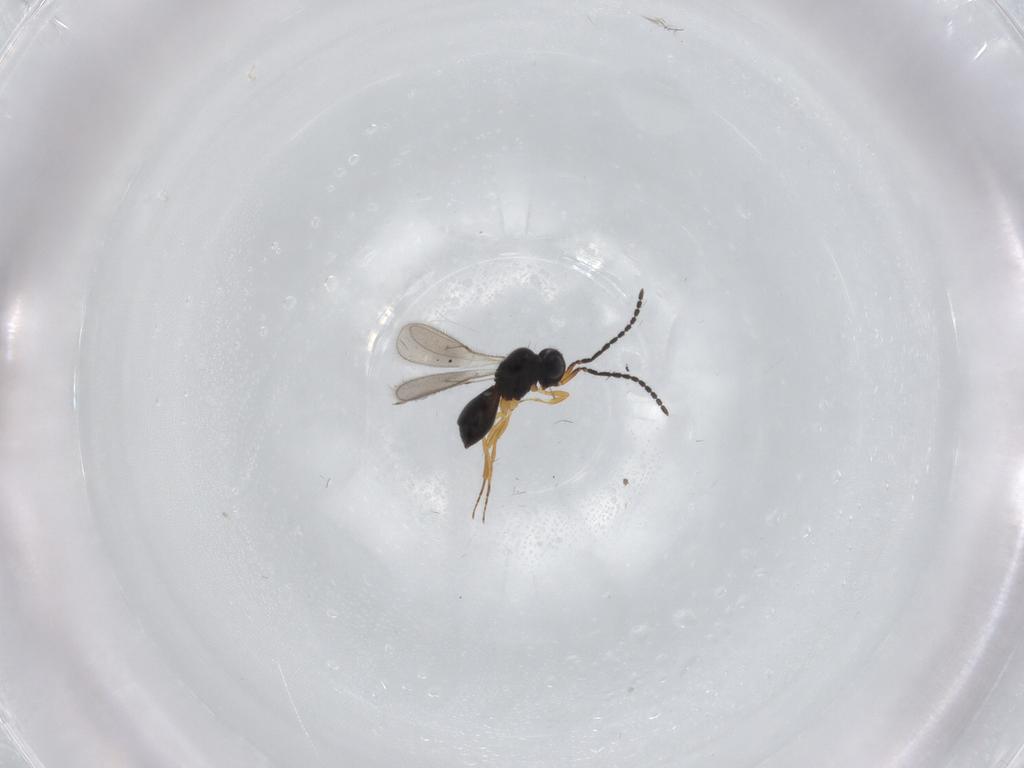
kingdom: Animalia
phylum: Arthropoda
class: Insecta
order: Hymenoptera
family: Scelionidae
